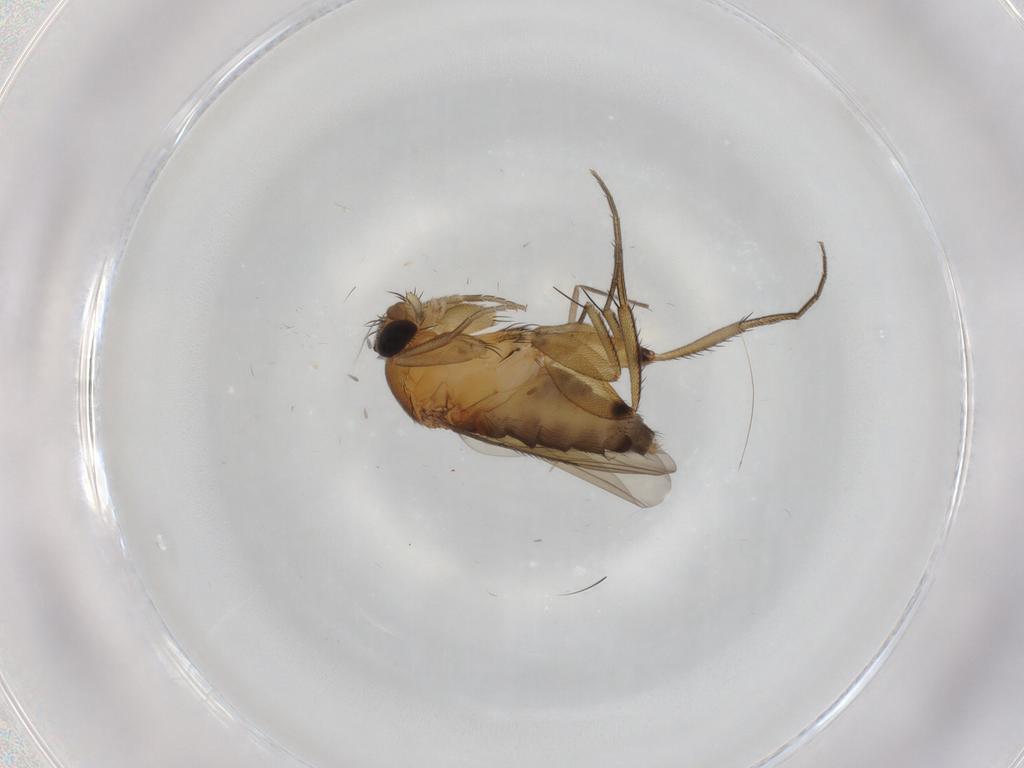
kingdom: Animalia
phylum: Arthropoda
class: Insecta
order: Diptera
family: Phoridae
